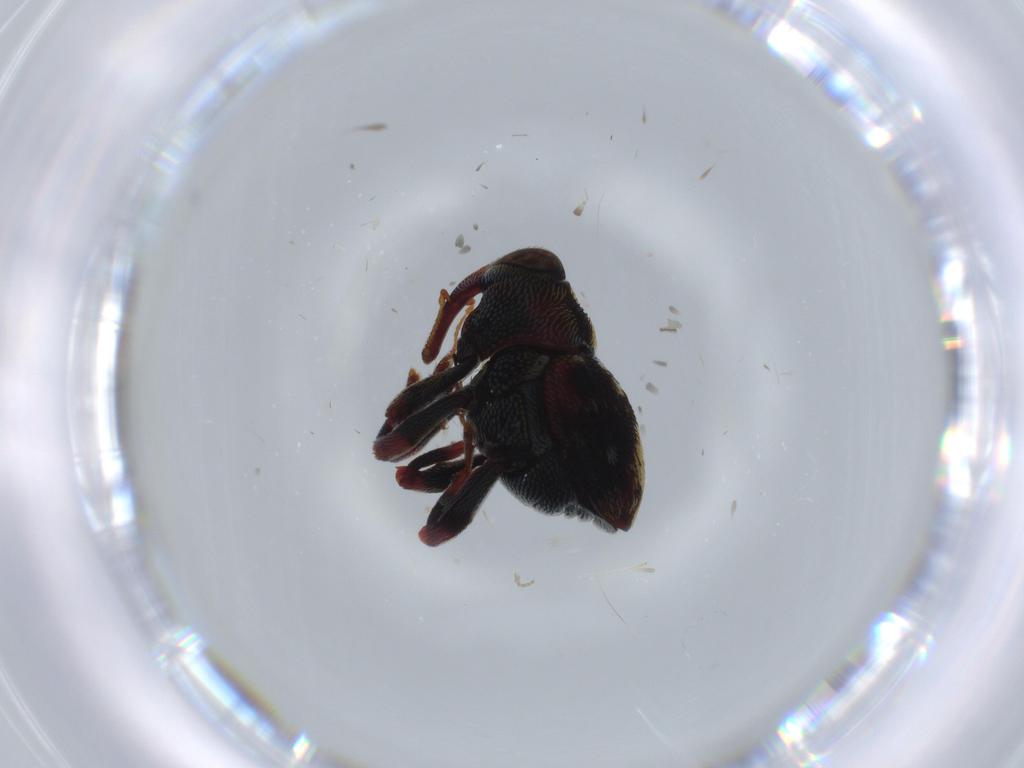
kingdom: Animalia
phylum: Arthropoda
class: Insecta
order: Coleoptera
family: Curculionidae
